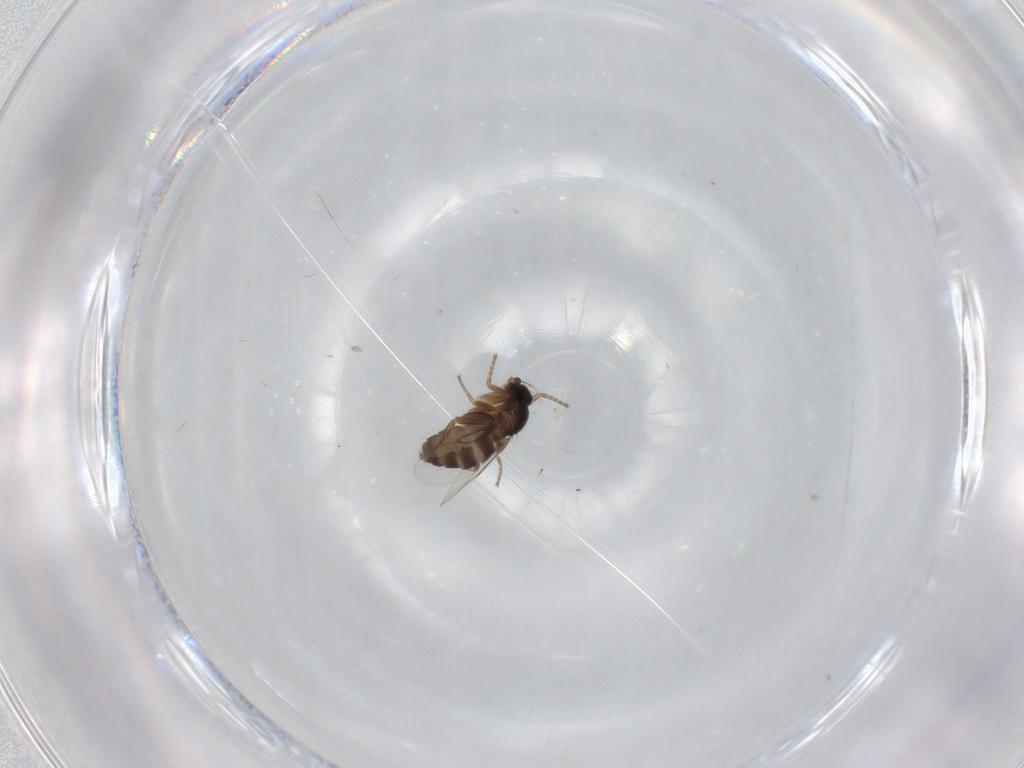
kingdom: Animalia
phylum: Arthropoda
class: Insecta
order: Diptera
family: Phoridae
